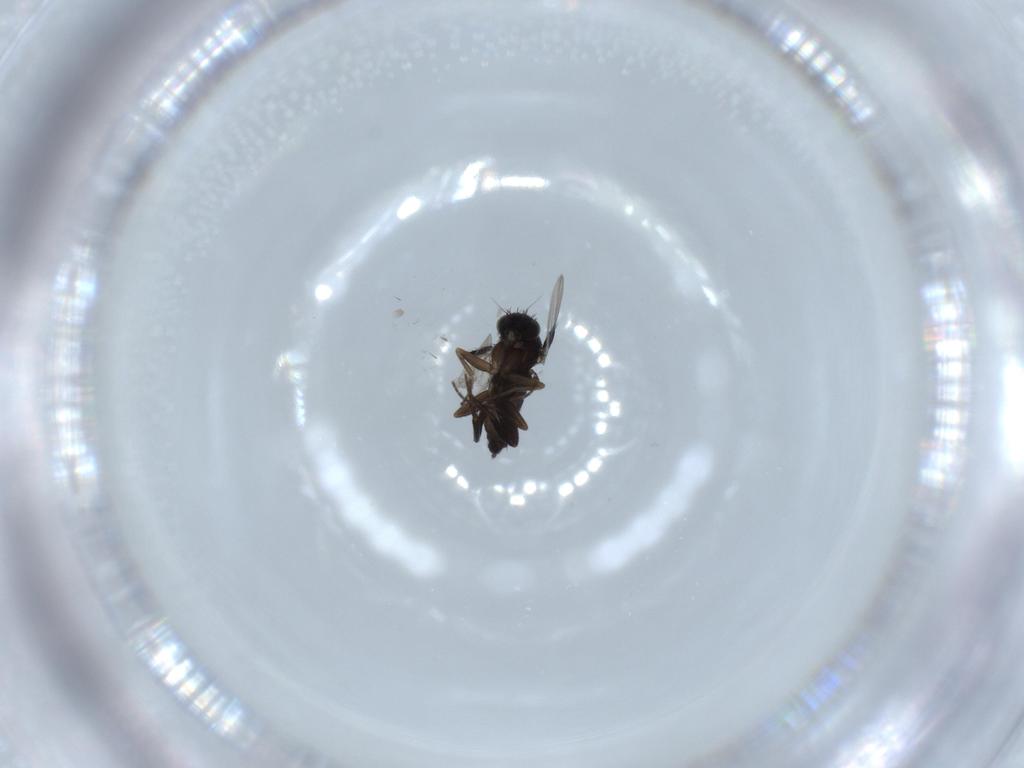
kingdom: Animalia
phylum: Arthropoda
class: Insecta
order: Diptera
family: Phoridae
